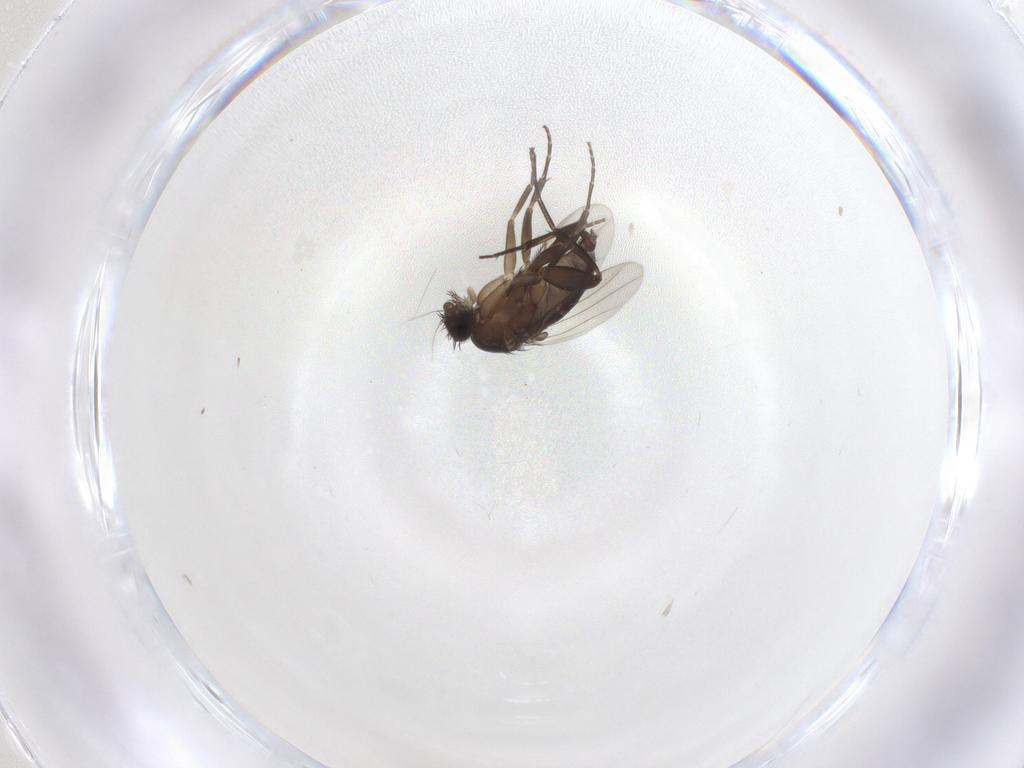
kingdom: Animalia
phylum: Arthropoda
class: Insecta
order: Diptera
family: Phoridae
